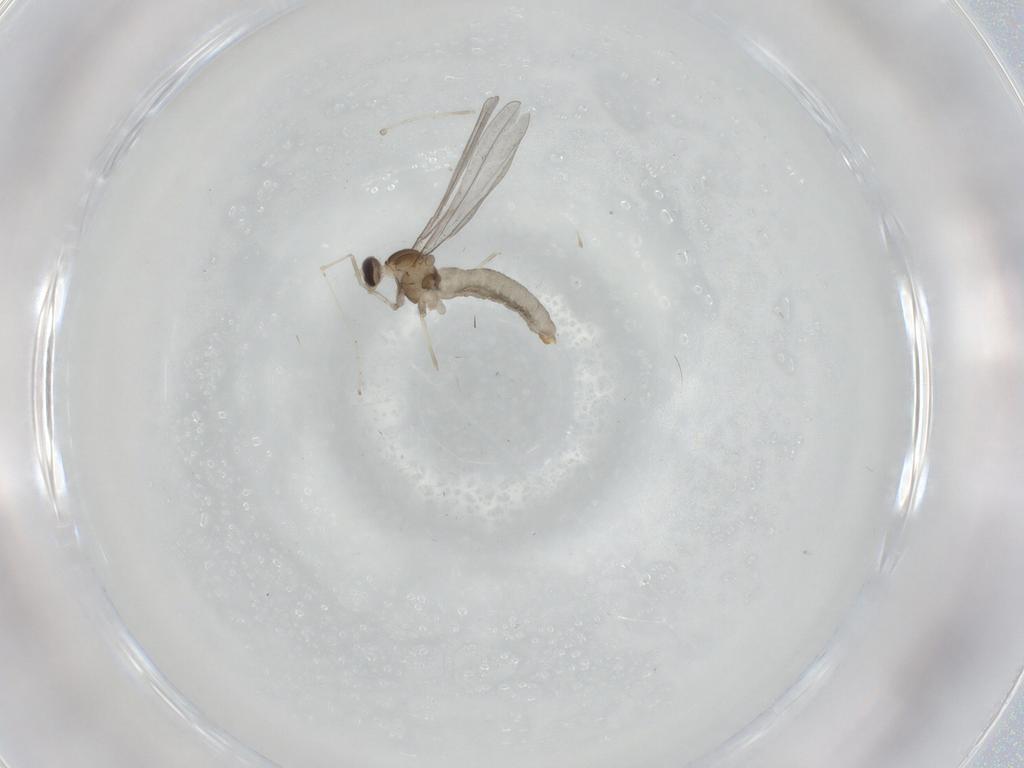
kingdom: Animalia
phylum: Arthropoda
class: Insecta
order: Diptera
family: Cecidomyiidae
